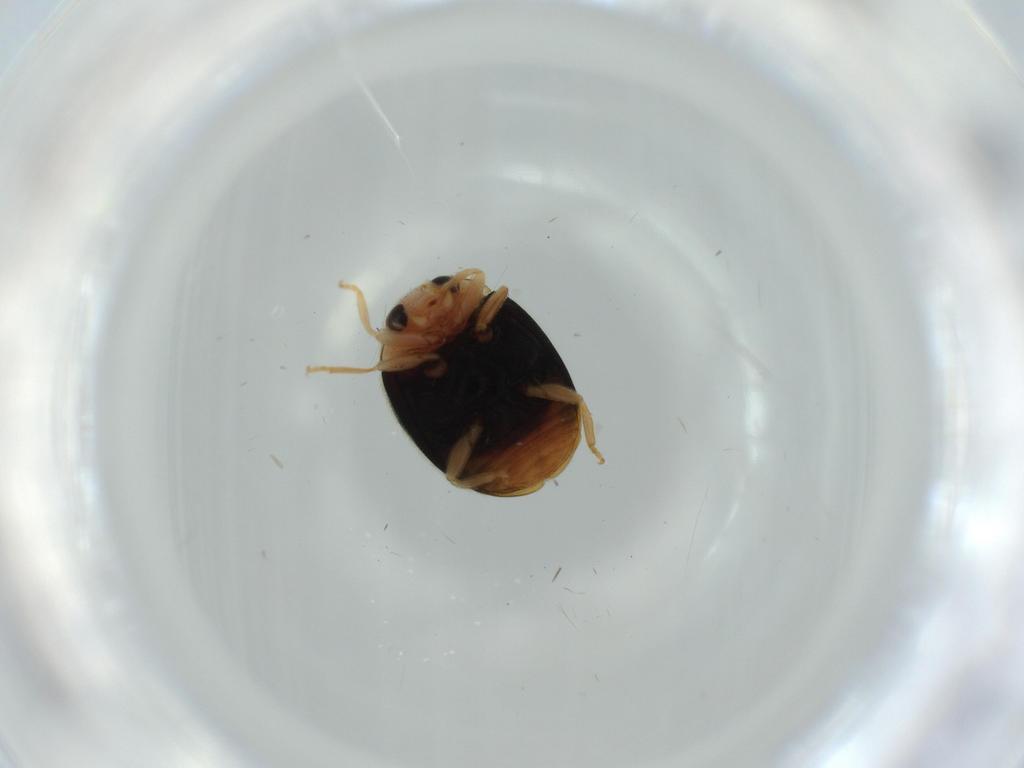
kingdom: Animalia
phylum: Arthropoda
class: Insecta
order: Coleoptera
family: Coccinellidae
